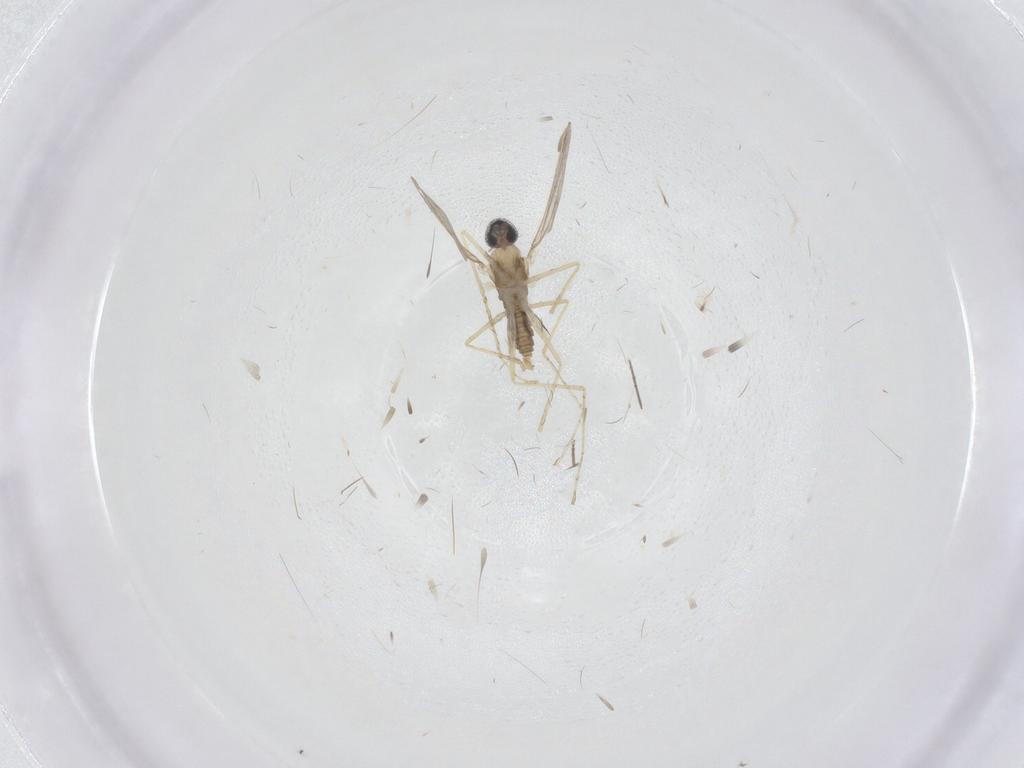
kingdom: Animalia
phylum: Arthropoda
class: Insecta
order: Diptera
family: Cecidomyiidae
